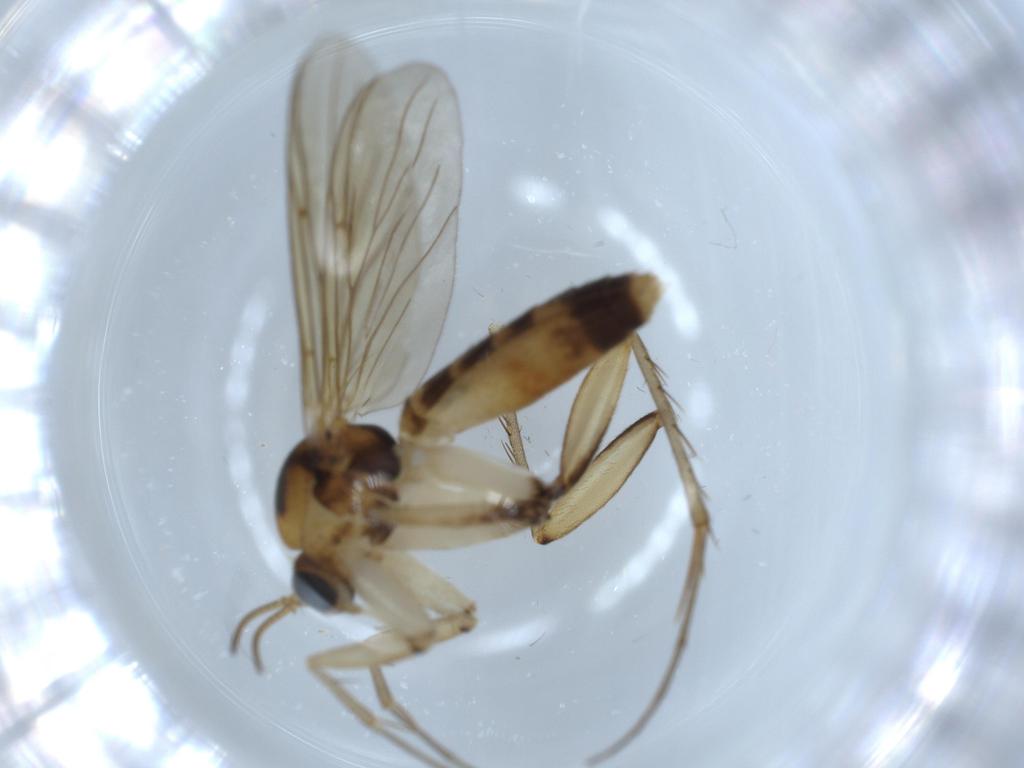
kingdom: Animalia
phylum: Arthropoda
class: Insecta
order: Diptera
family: Mycetophilidae
